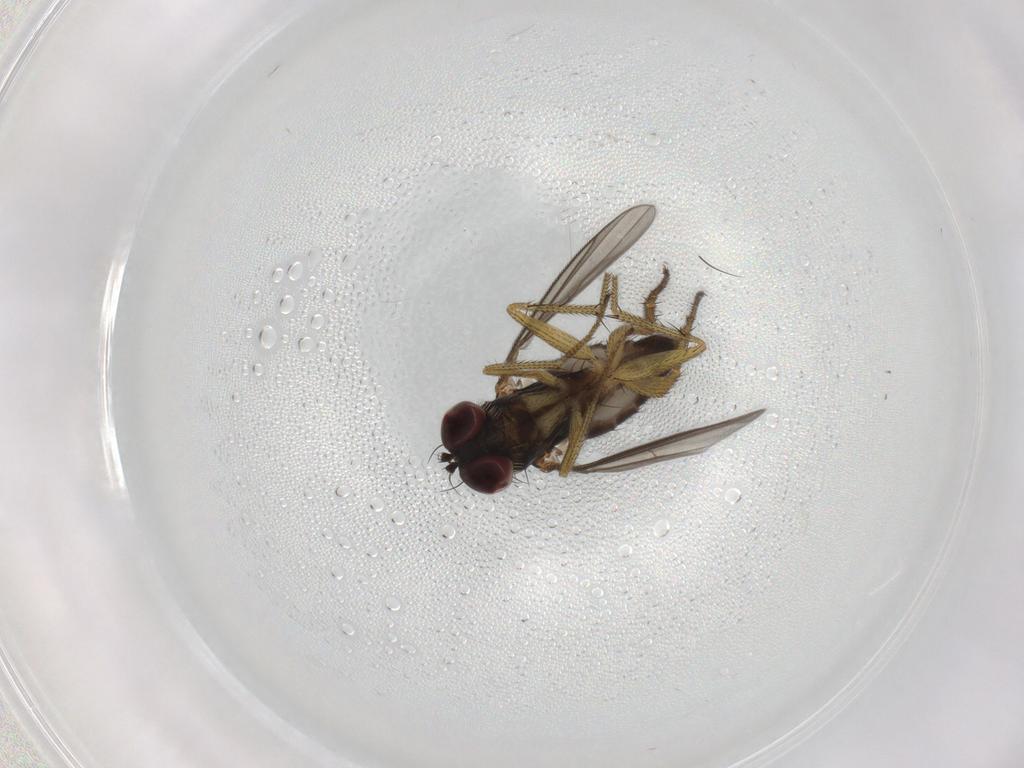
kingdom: Animalia
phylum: Arthropoda
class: Insecta
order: Diptera
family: Dolichopodidae
